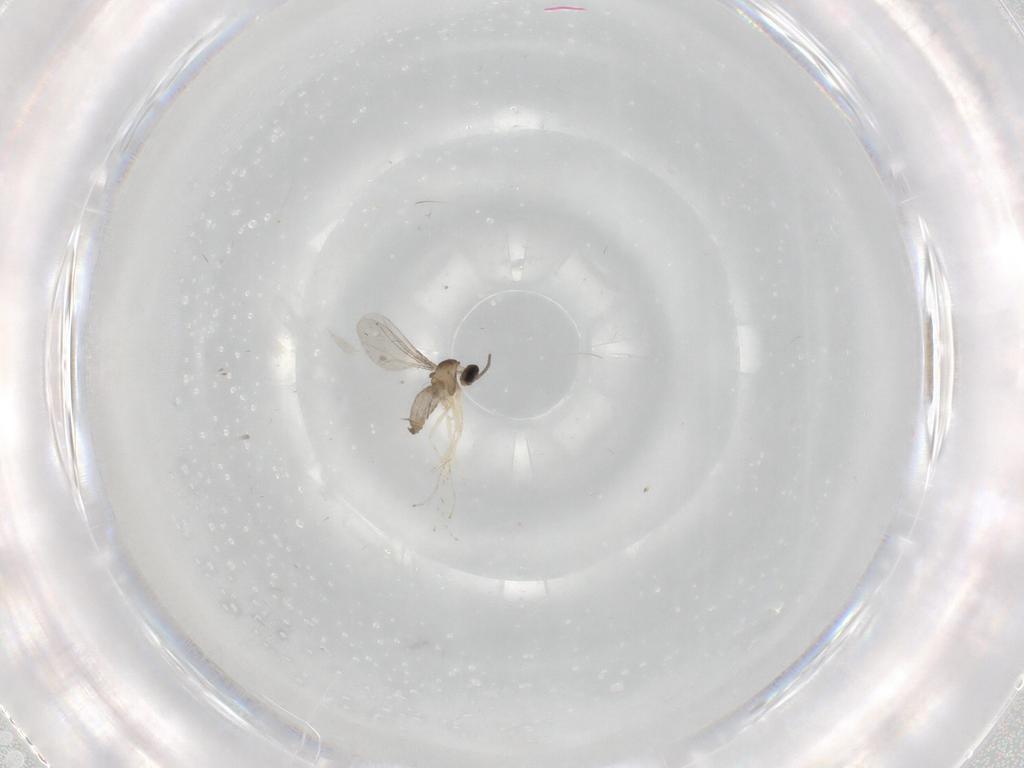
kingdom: Animalia
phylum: Arthropoda
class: Insecta
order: Diptera
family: Cecidomyiidae
